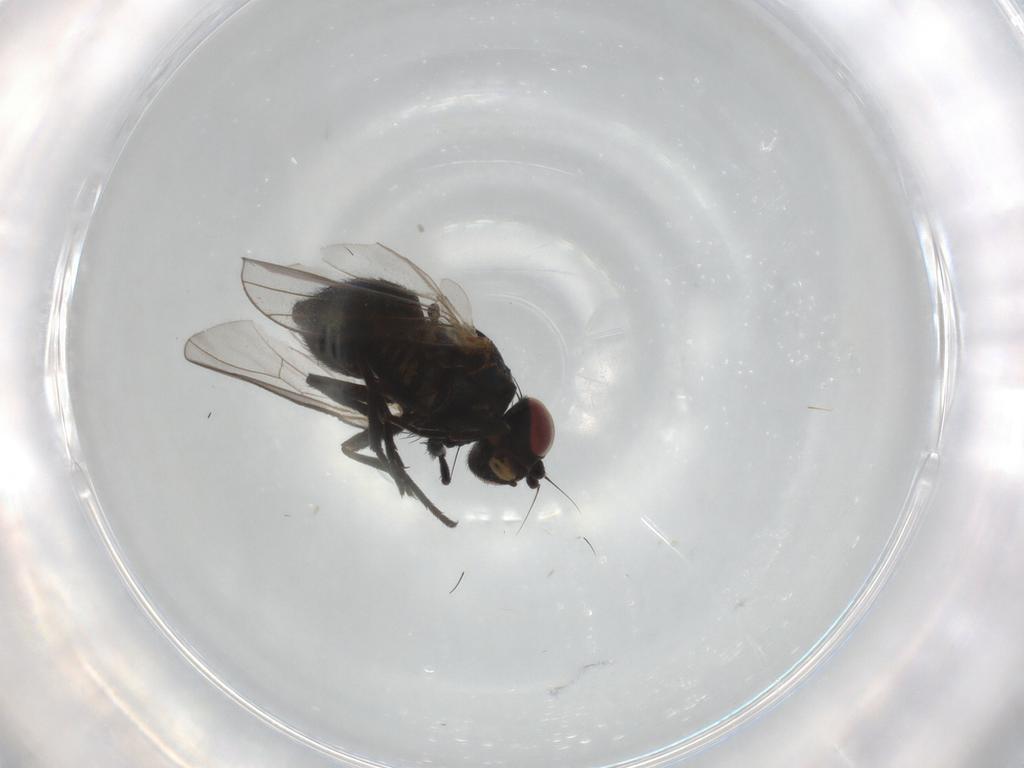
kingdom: Animalia
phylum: Arthropoda
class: Insecta
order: Diptera
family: Agromyzidae
